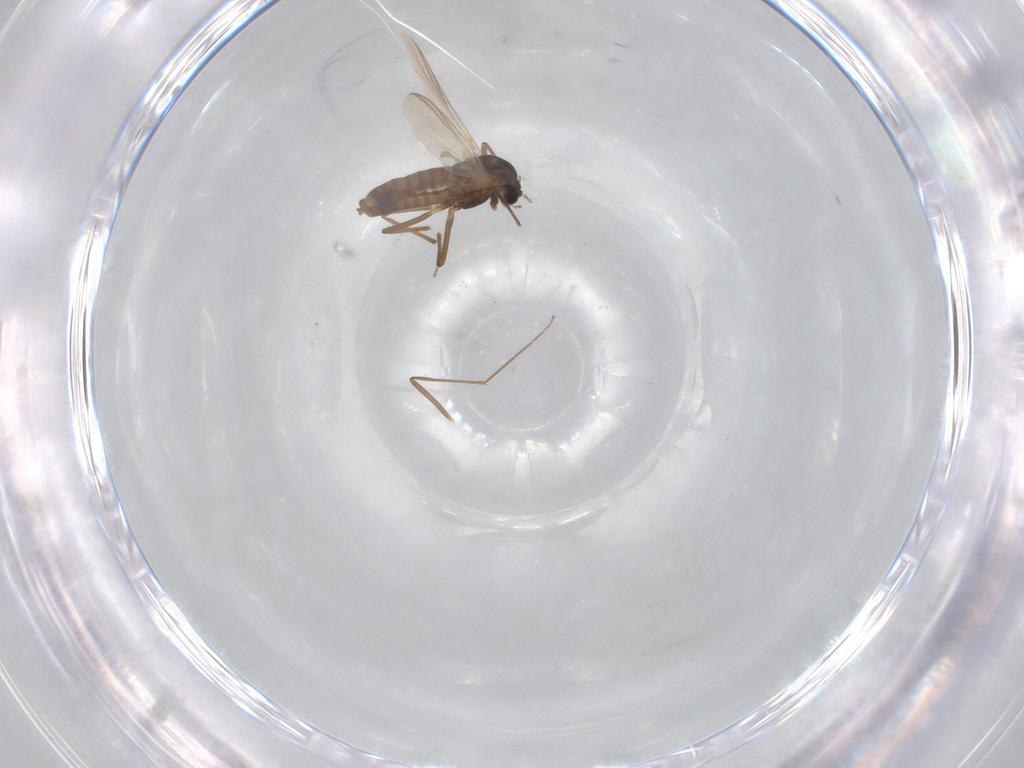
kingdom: Animalia
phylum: Arthropoda
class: Insecta
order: Diptera
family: Chironomidae
